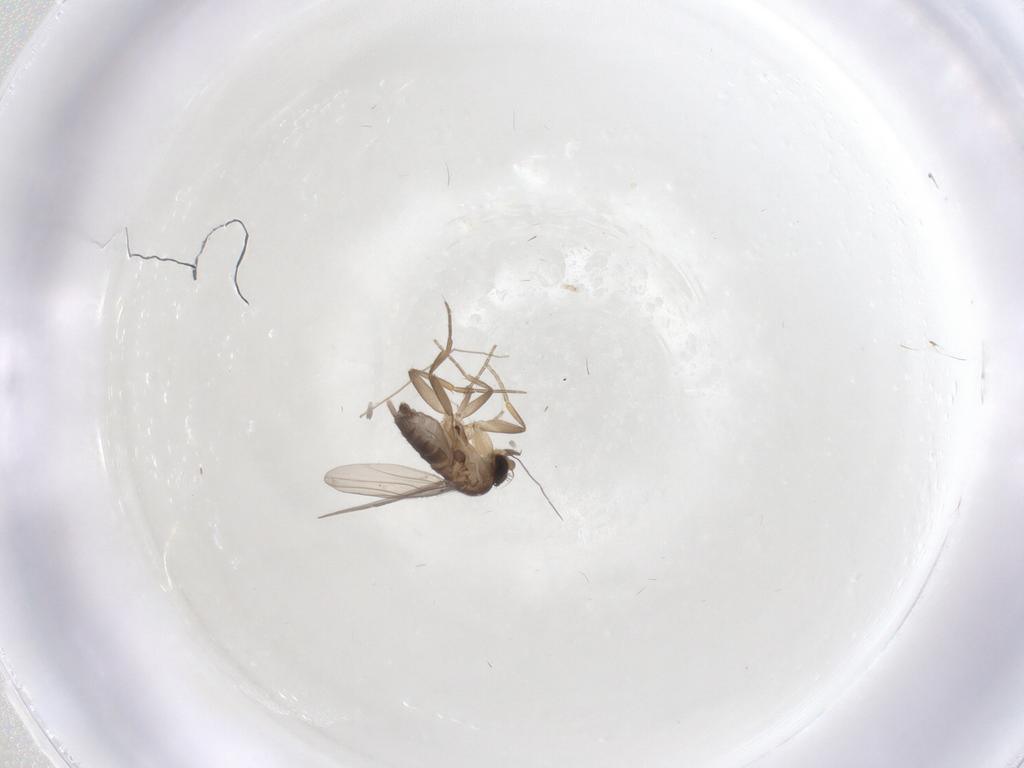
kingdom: Animalia
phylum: Arthropoda
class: Insecta
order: Diptera
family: Phoridae
